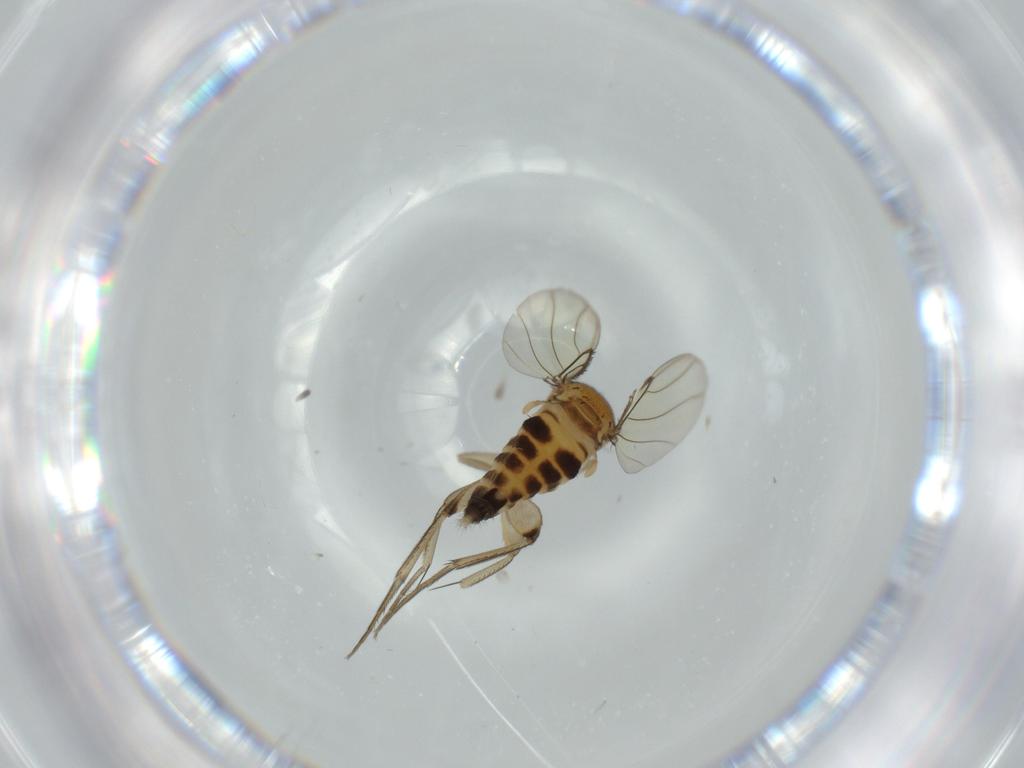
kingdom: Animalia
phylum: Arthropoda
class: Insecta
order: Diptera
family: Phoridae
